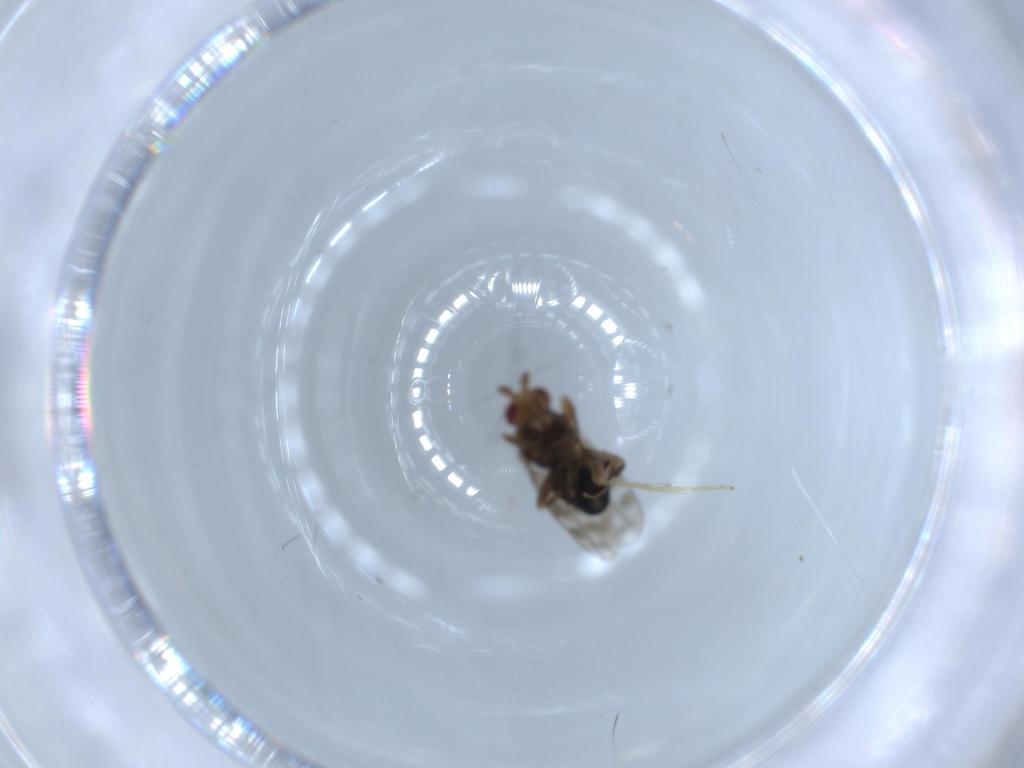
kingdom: Animalia
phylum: Arthropoda
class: Insecta
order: Diptera
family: Sphaeroceridae
